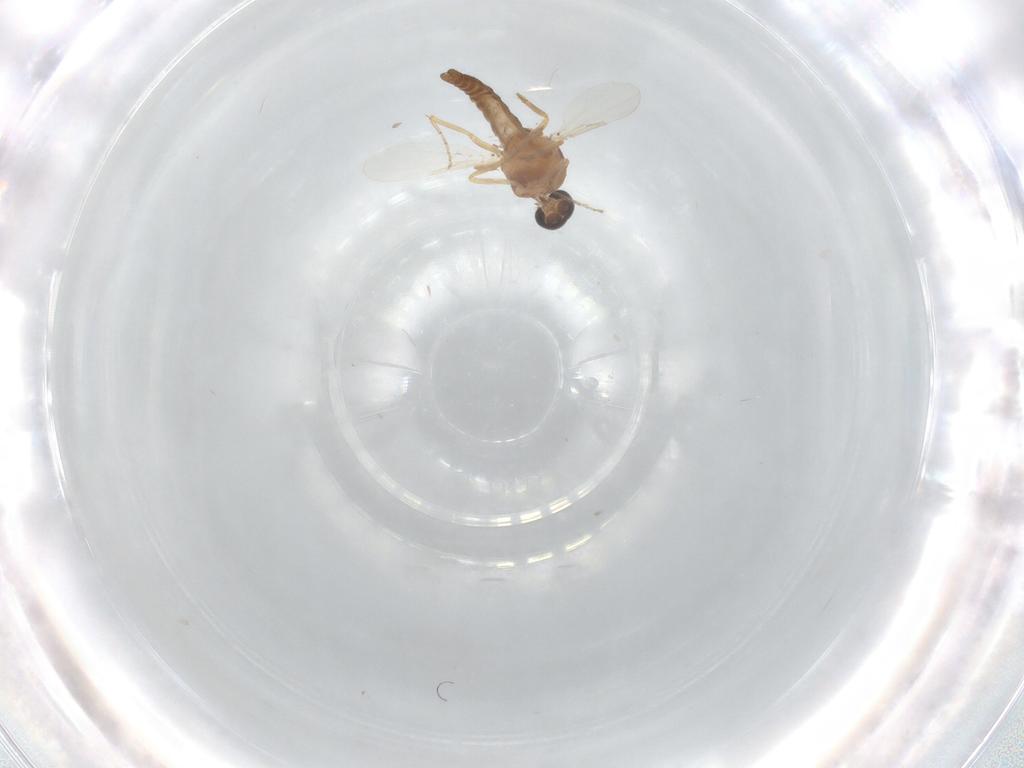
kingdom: Animalia
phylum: Arthropoda
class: Insecta
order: Diptera
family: Ceratopogonidae
